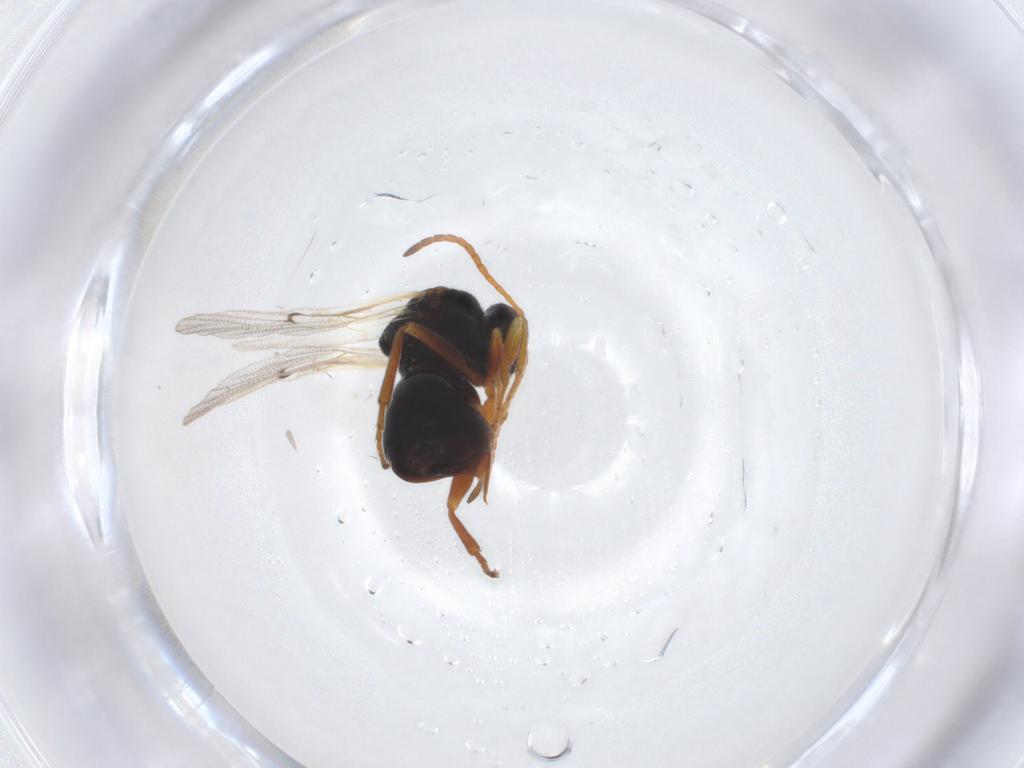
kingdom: Animalia
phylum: Arthropoda
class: Insecta
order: Hymenoptera
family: Cynipidae
